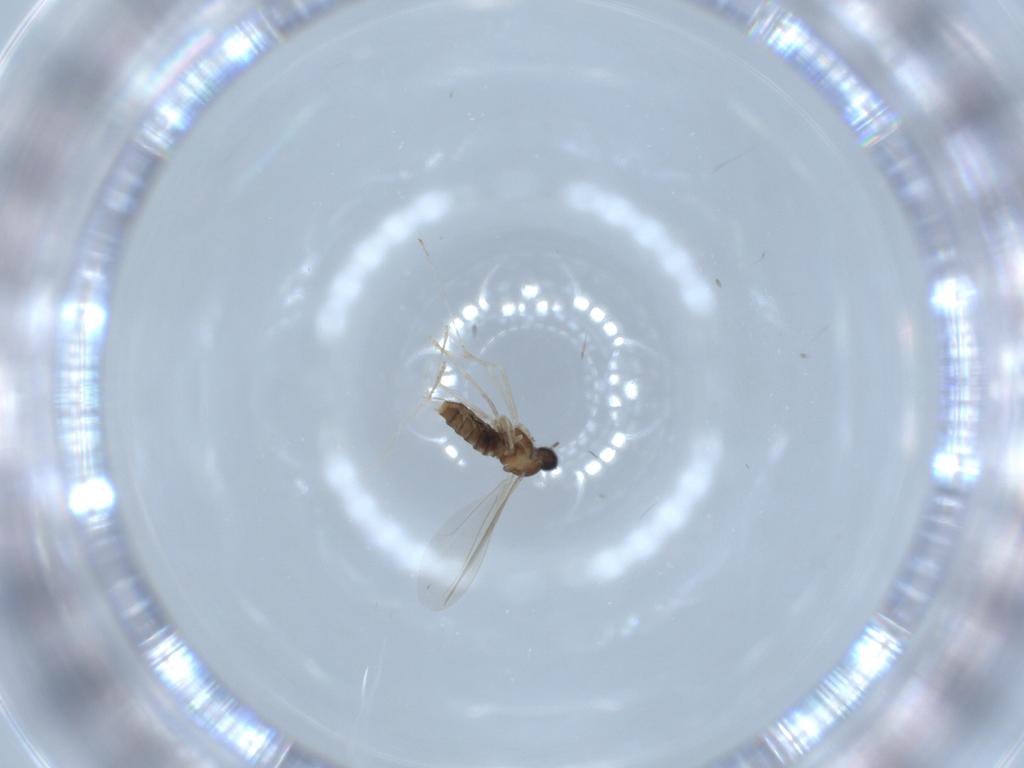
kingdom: Animalia
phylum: Arthropoda
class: Insecta
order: Diptera
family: Cecidomyiidae
